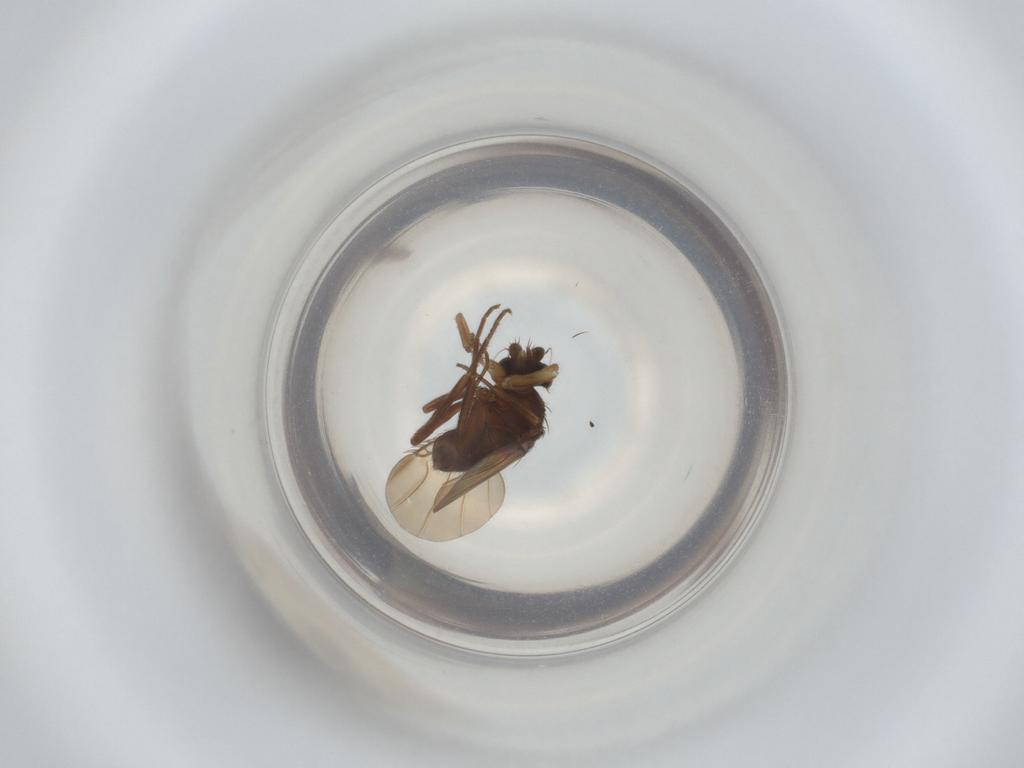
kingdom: Animalia
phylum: Arthropoda
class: Insecta
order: Diptera
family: Phoridae
